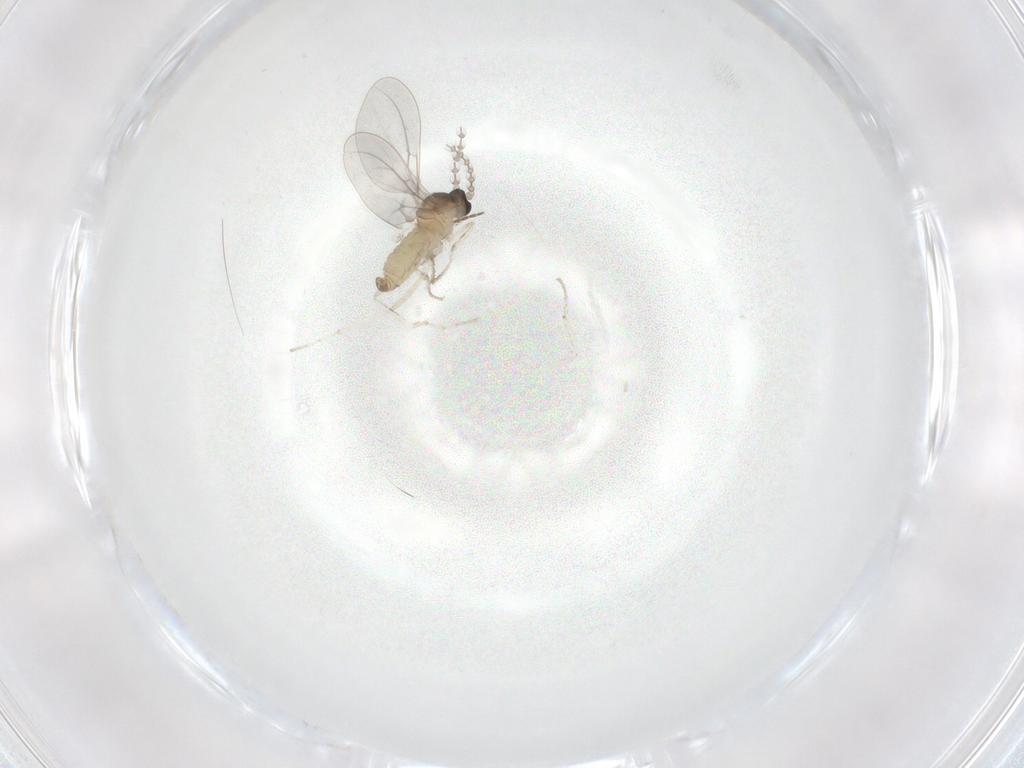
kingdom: Animalia
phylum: Arthropoda
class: Insecta
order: Diptera
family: Cecidomyiidae
